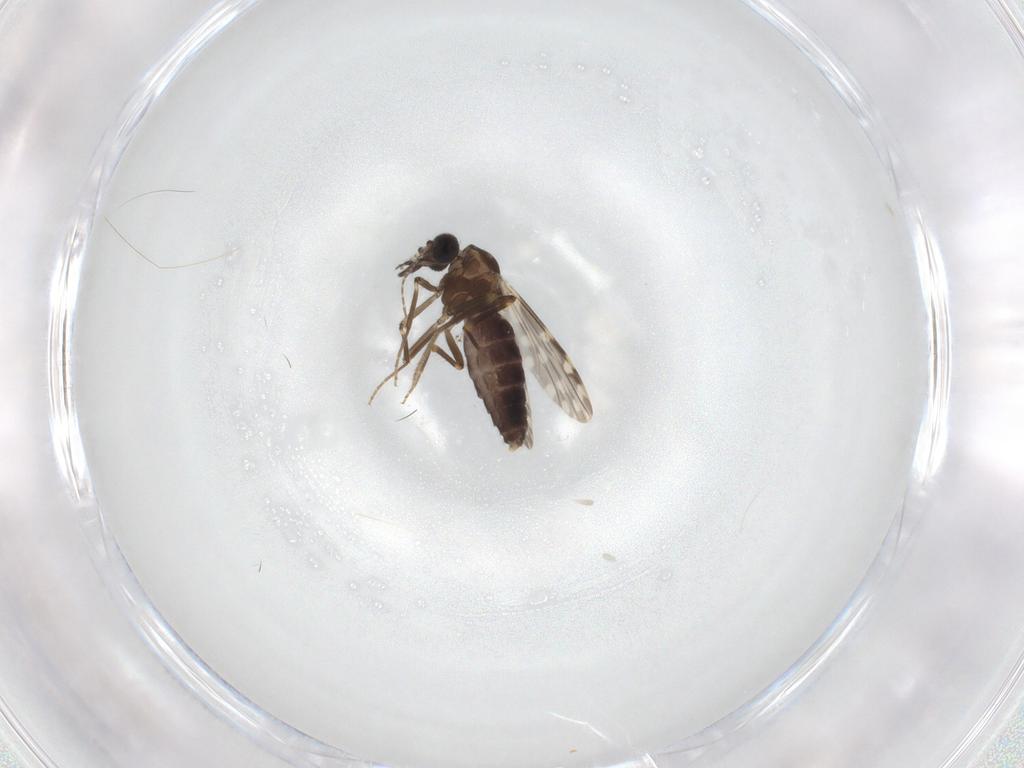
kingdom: Animalia
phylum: Arthropoda
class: Insecta
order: Diptera
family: Ceratopogonidae
